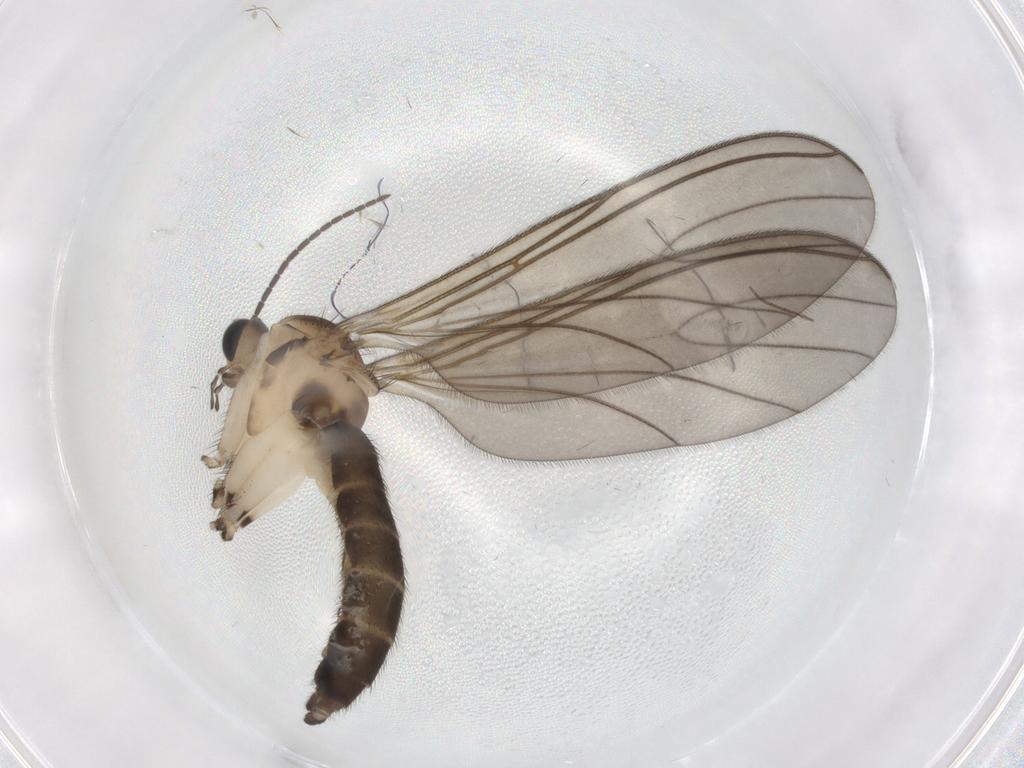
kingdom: Animalia
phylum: Arthropoda
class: Insecta
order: Diptera
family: Sciaridae
